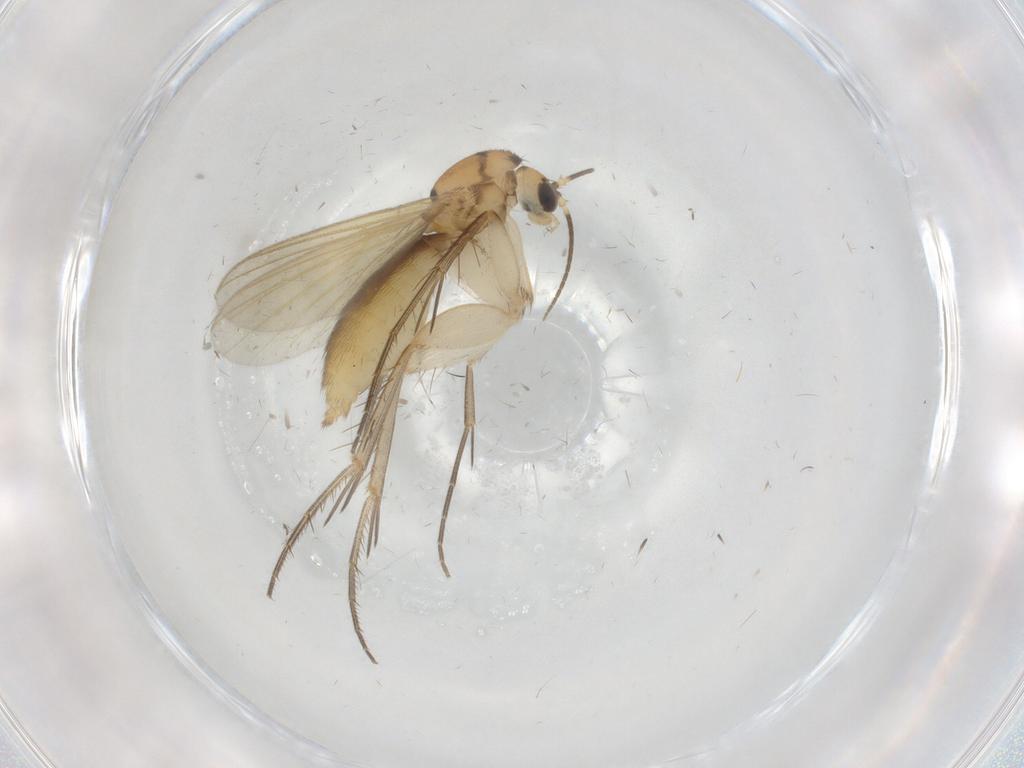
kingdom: Animalia
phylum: Arthropoda
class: Insecta
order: Diptera
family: Mycetophilidae
